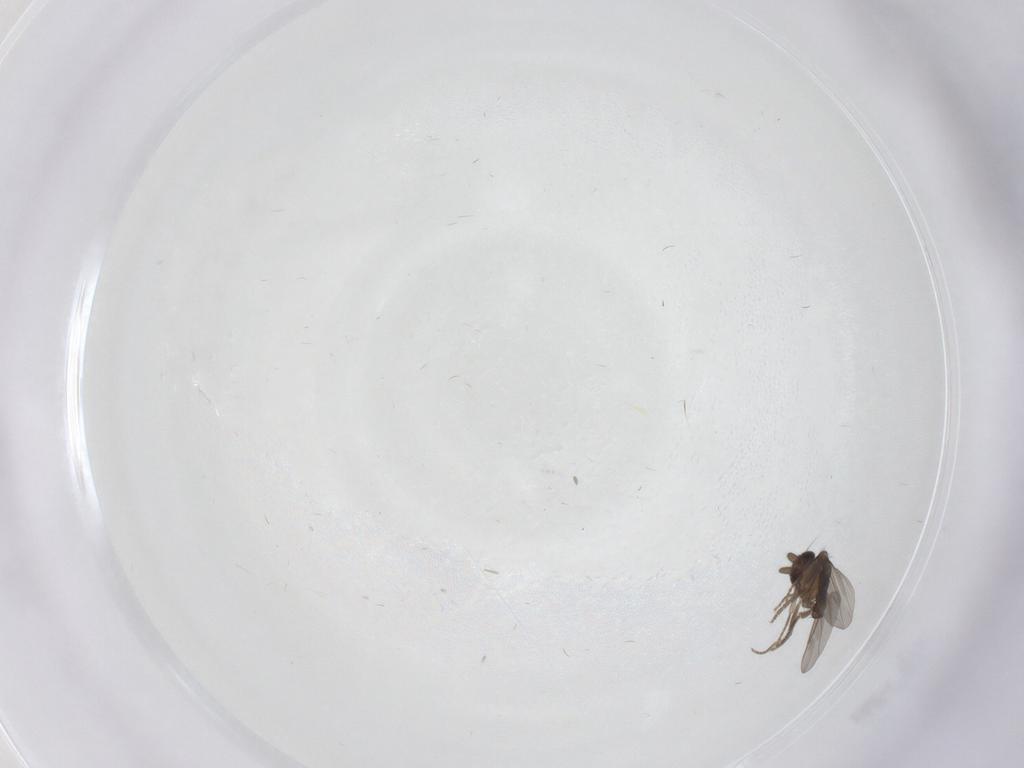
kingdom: Animalia
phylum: Arthropoda
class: Insecta
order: Diptera
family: Cecidomyiidae
